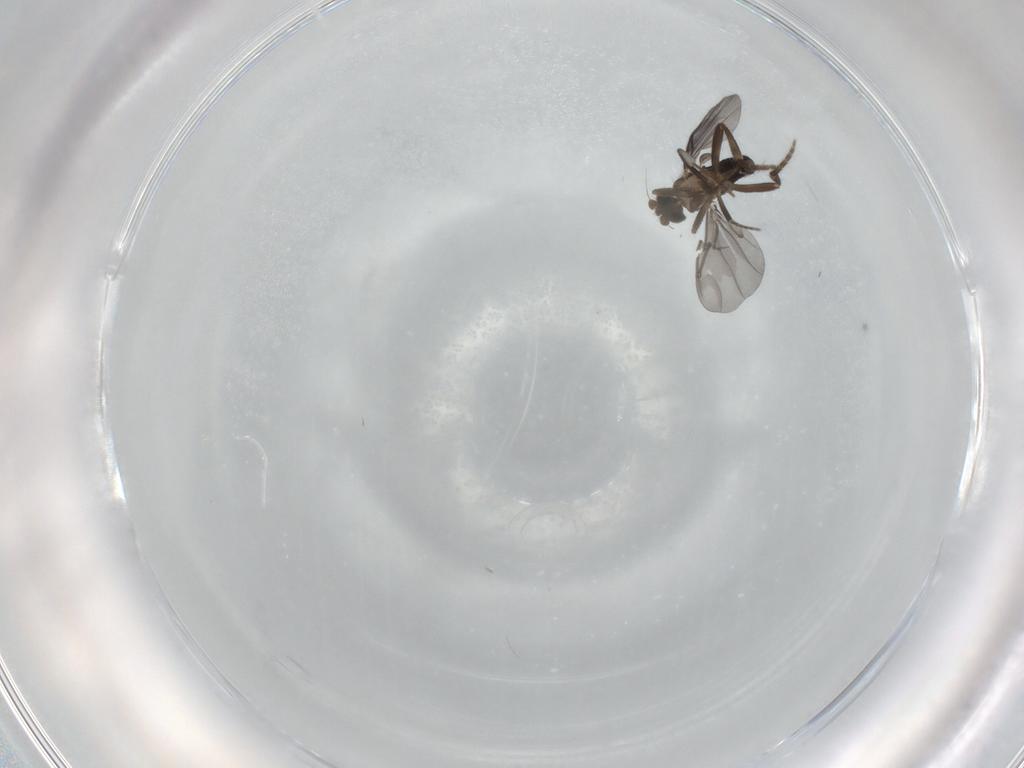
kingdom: Animalia
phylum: Arthropoda
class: Insecta
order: Diptera
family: Phoridae
